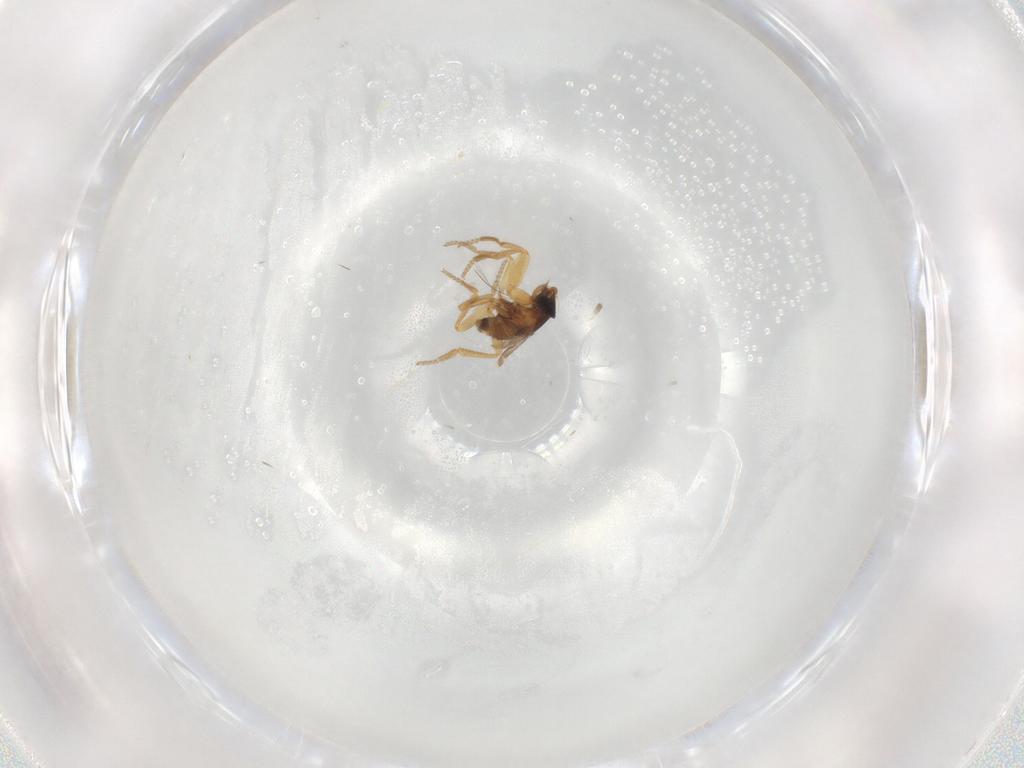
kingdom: Animalia
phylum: Arthropoda
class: Insecta
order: Diptera
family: Phoridae
